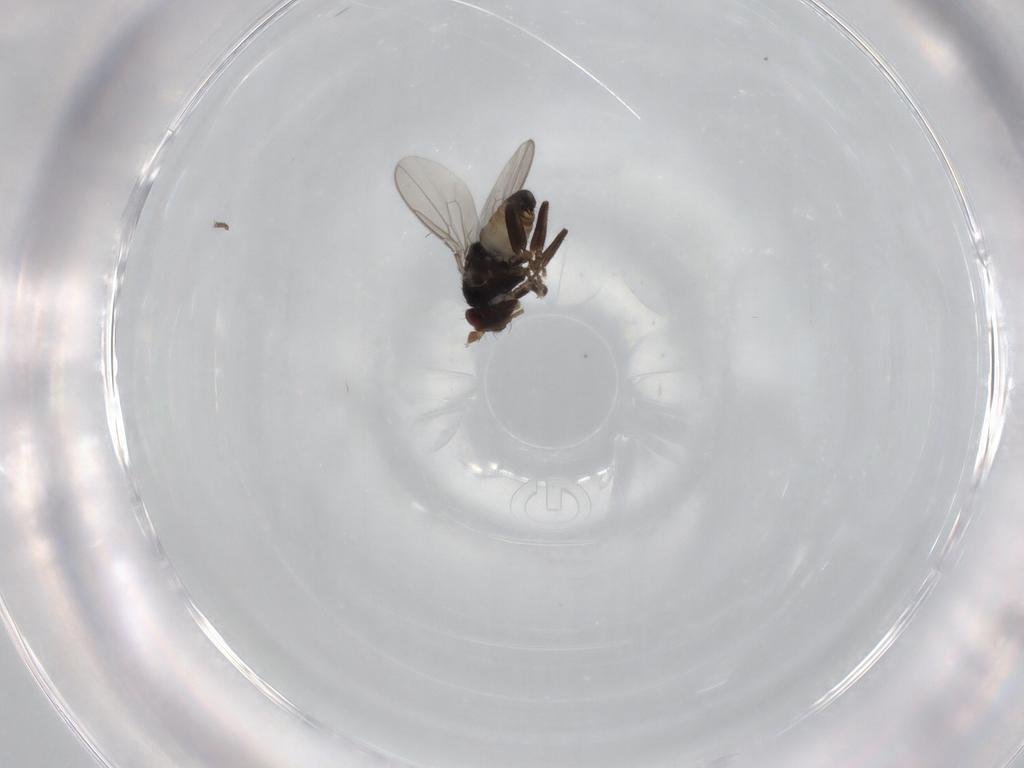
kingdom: Animalia
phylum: Arthropoda
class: Insecta
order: Diptera
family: Sphaeroceridae
